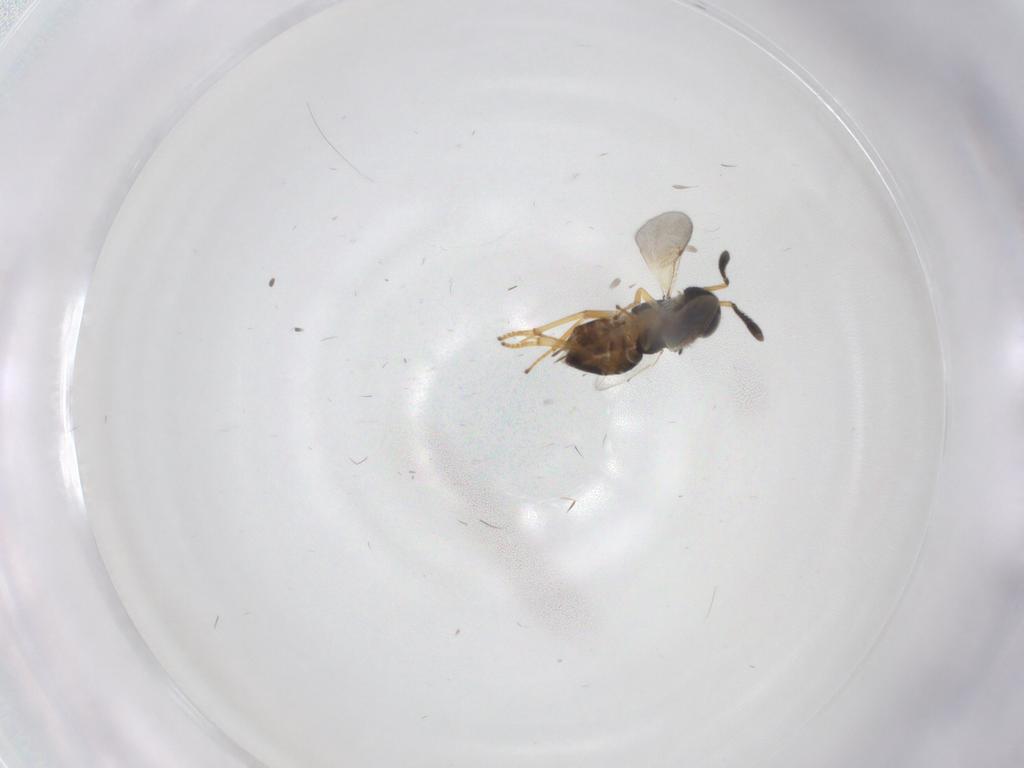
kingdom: Animalia
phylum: Arthropoda
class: Insecta
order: Hymenoptera
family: Encyrtidae
